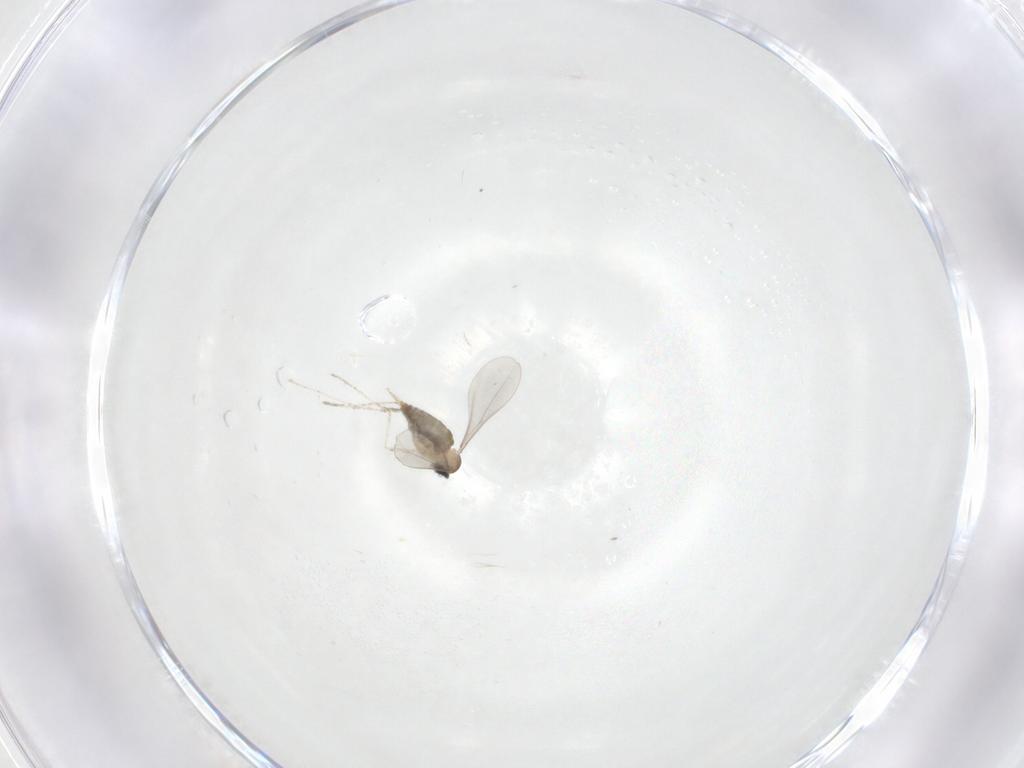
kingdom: Animalia
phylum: Arthropoda
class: Insecta
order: Diptera
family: Cecidomyiidae
